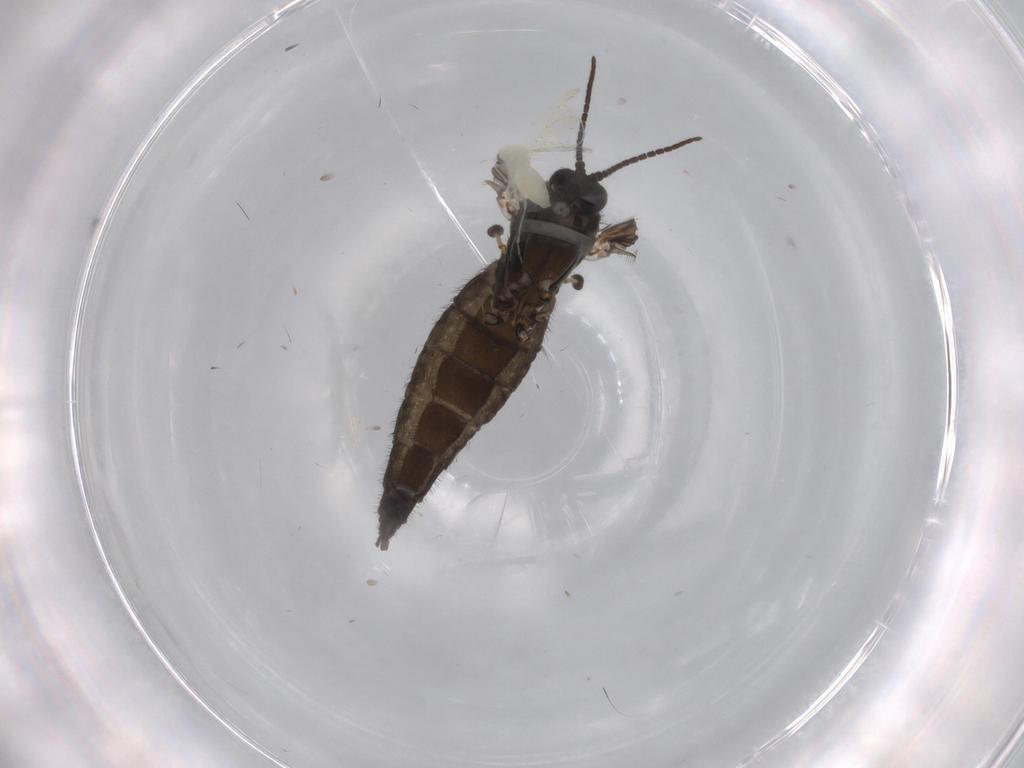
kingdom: Animalia
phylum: Arthropoda
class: Insecta
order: Diptera
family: Sciaridae
